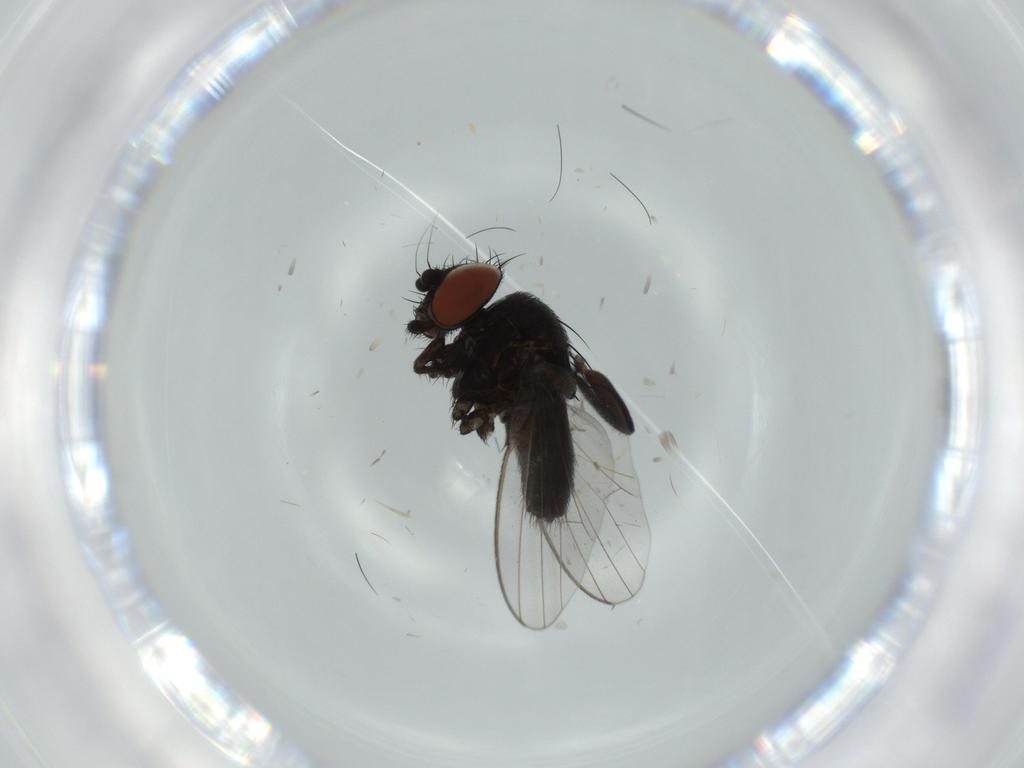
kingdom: Animalia
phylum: Arthropoda
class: Insecta
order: Diptera
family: Milichiidae
